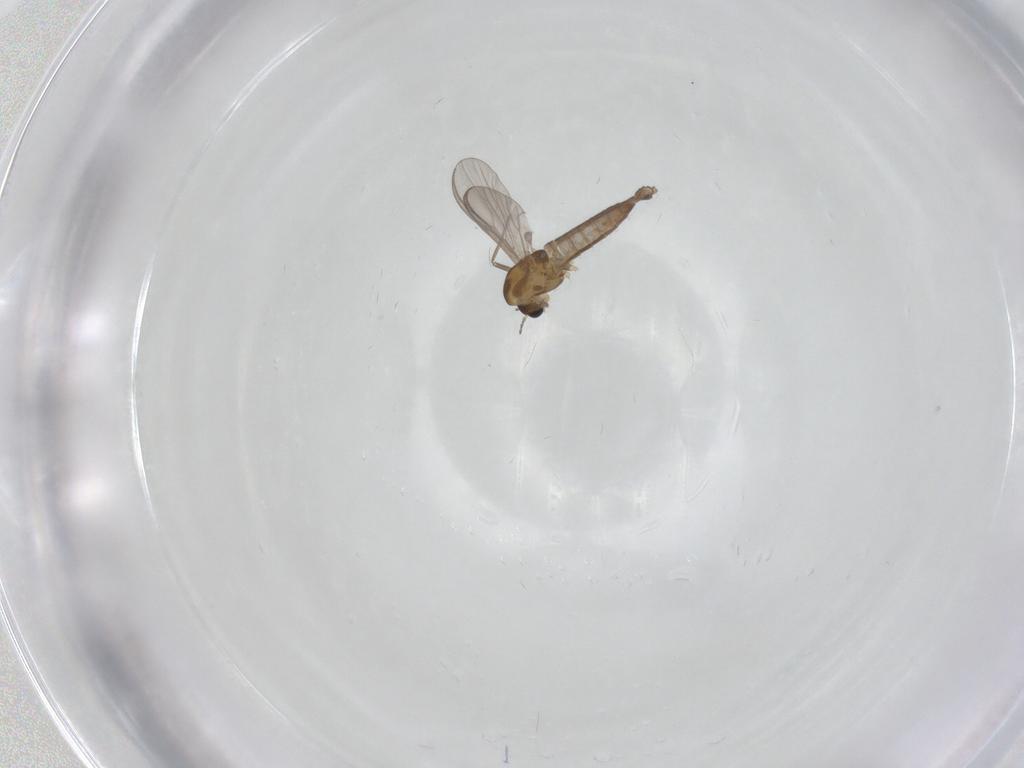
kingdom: Animalia
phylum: Arthropoda
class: Insecta
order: Diptera
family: Chironomidae
